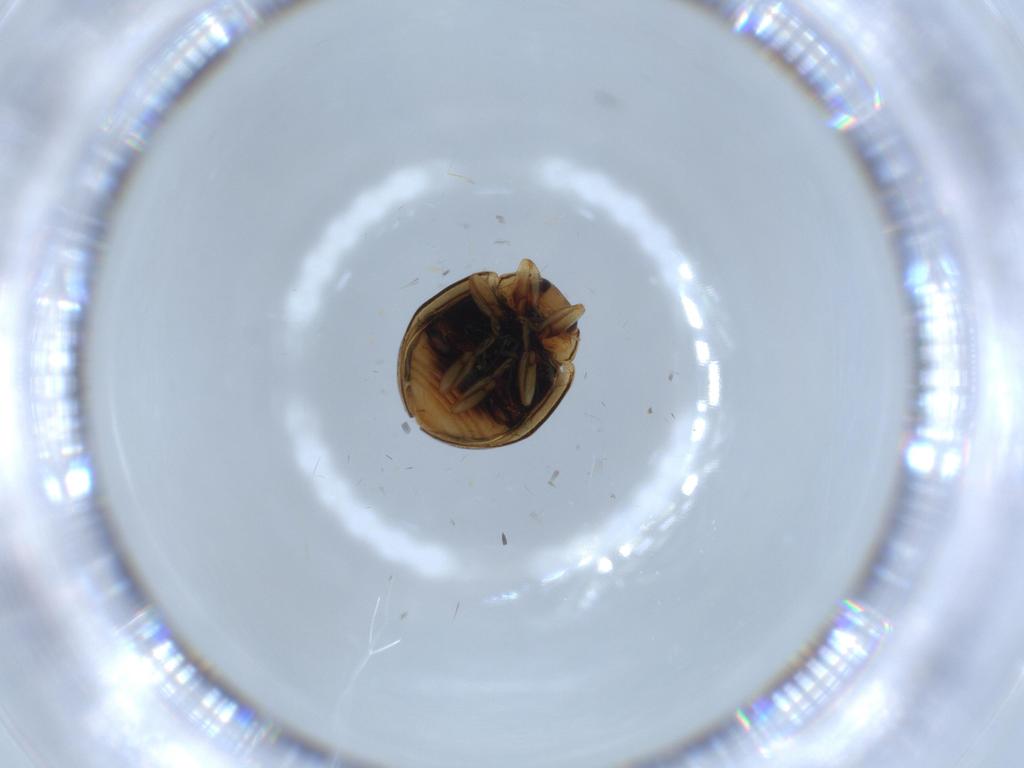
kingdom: Animalia
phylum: Arthropoda
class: Insecta
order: Coleoptera
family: Coccinellidae
